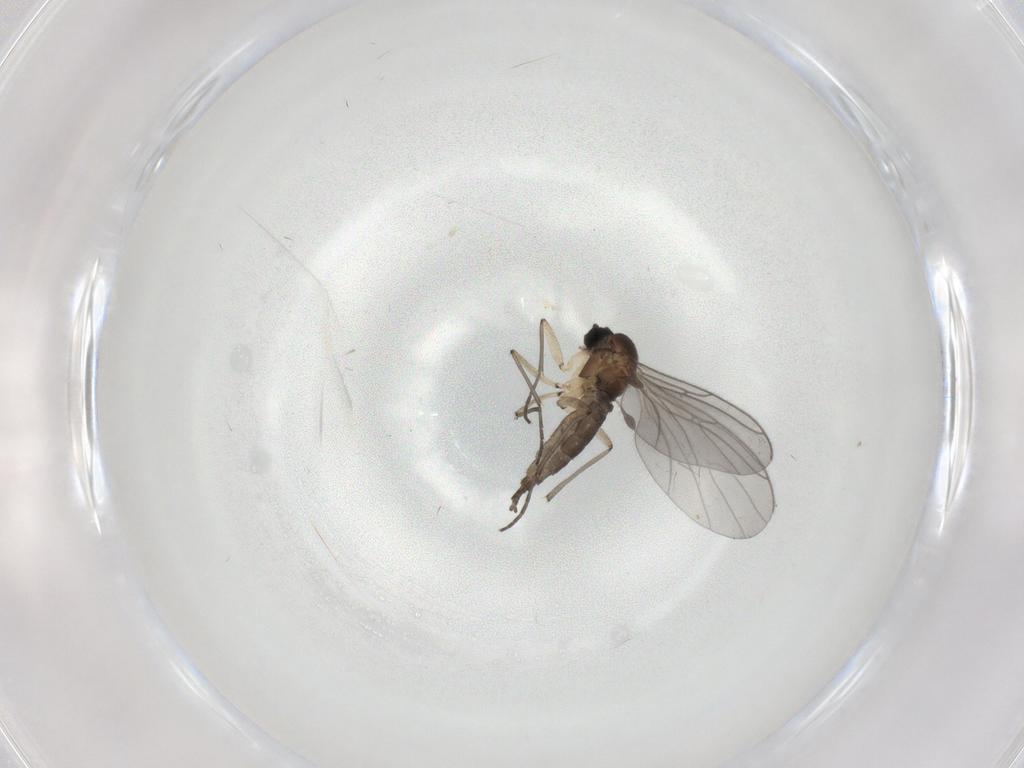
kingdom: Animalia
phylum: Arthropoda
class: Insecta
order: Diptera
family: Sciaridae
